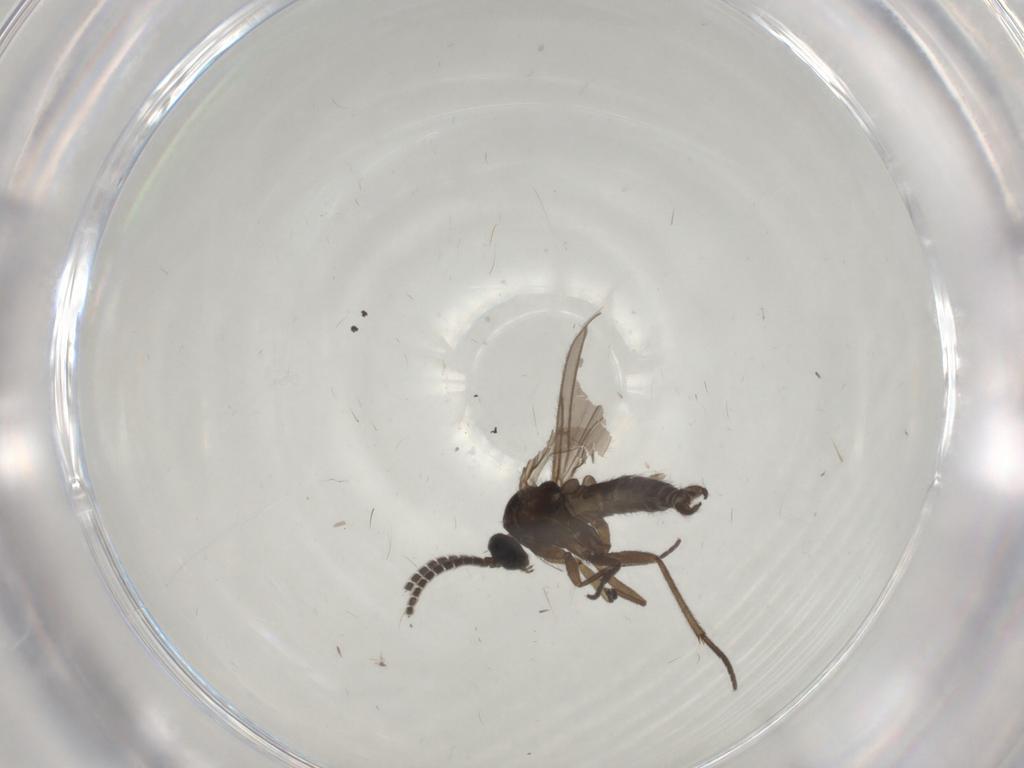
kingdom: Animalia
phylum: Arthropoda
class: Insecta
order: Diptera
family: Sciaridae
